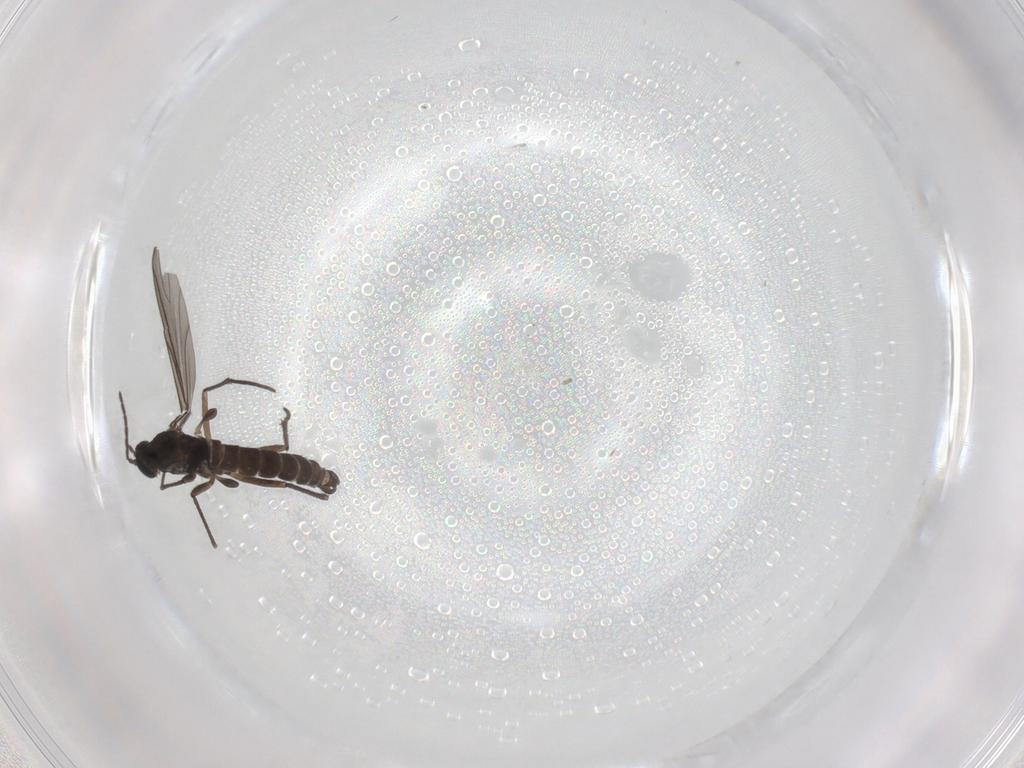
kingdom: Animalia
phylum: Arthropoda
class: Insecta
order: Diptera
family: Sciaridae
